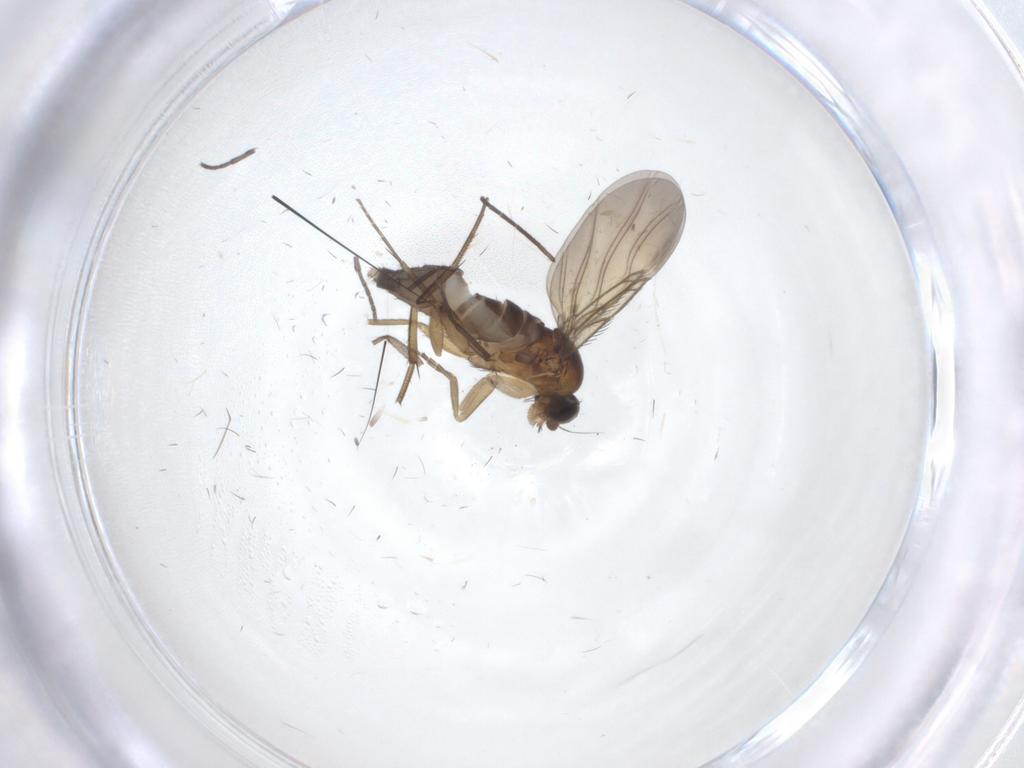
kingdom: Animalia
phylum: Arthropoda
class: Insecta
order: Diptera
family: Phoridae
